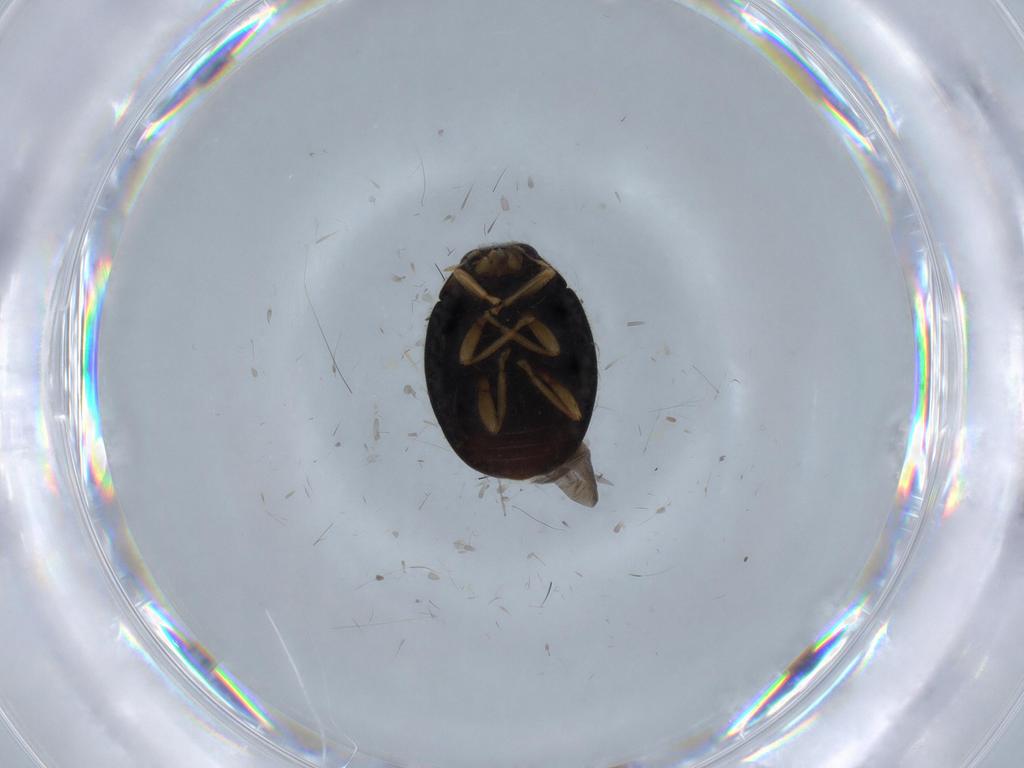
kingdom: Animalia
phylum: Arthropoda
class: Insecta
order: Coleoptera
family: Coccinellidae
